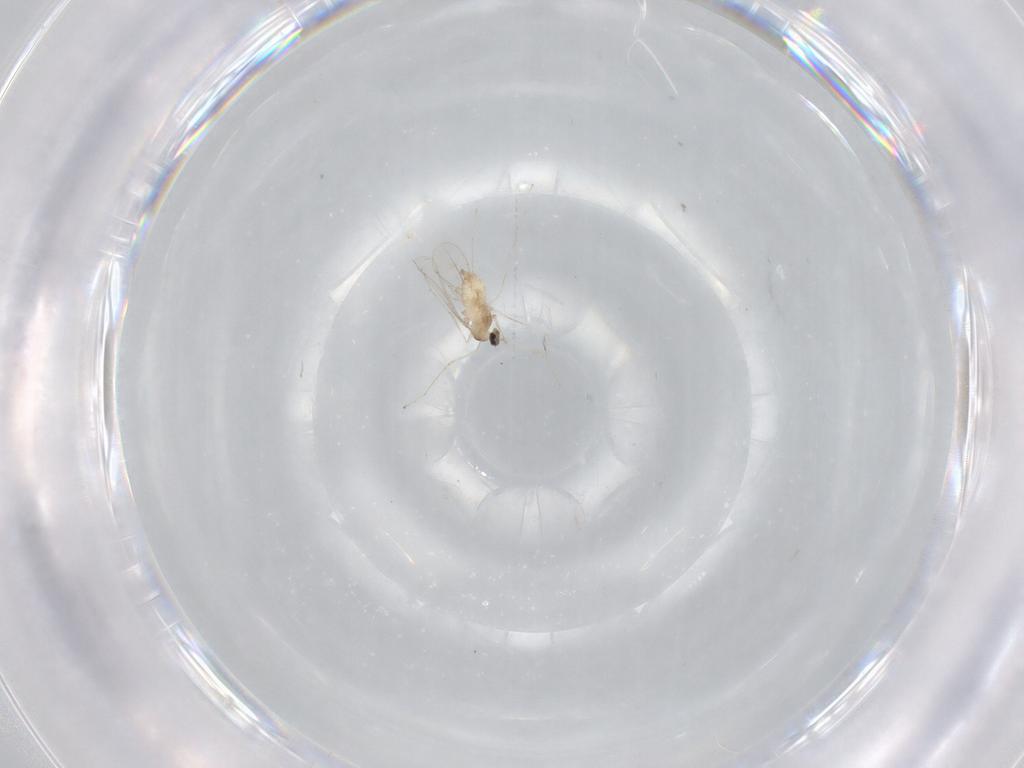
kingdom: Animalia
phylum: Arthropoda
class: Insecta
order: Diptera
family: Cecidomyiidae
